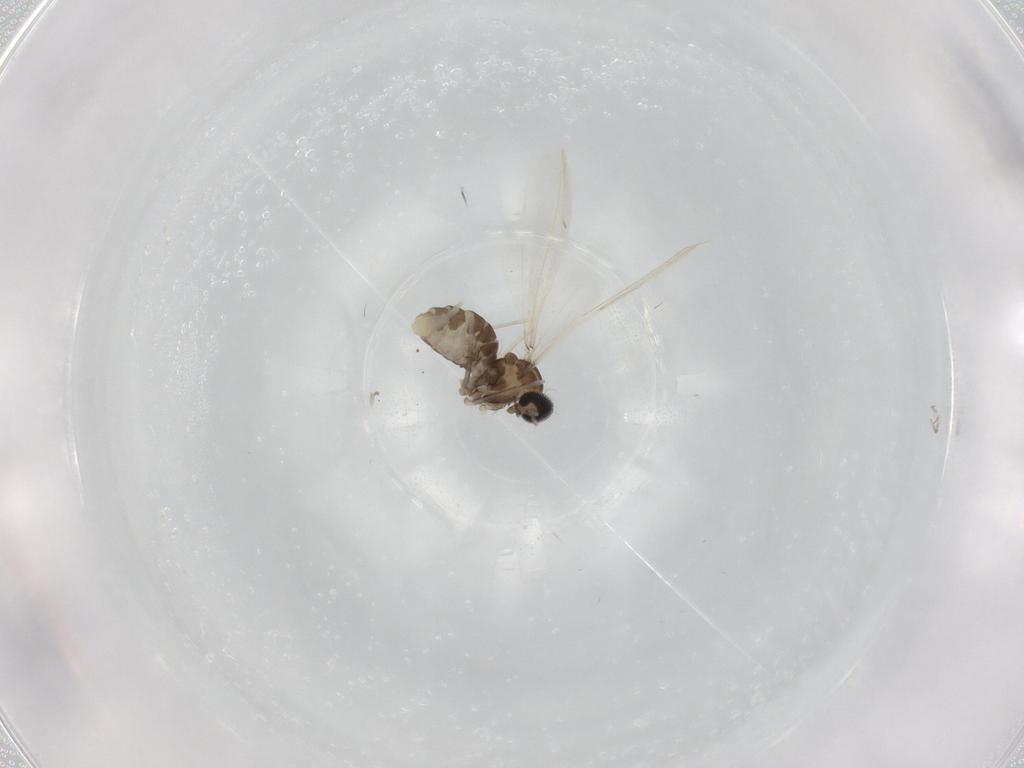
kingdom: Animalia
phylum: Arthropoda
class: Insecta
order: Diptera
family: Cecidomyiidae
